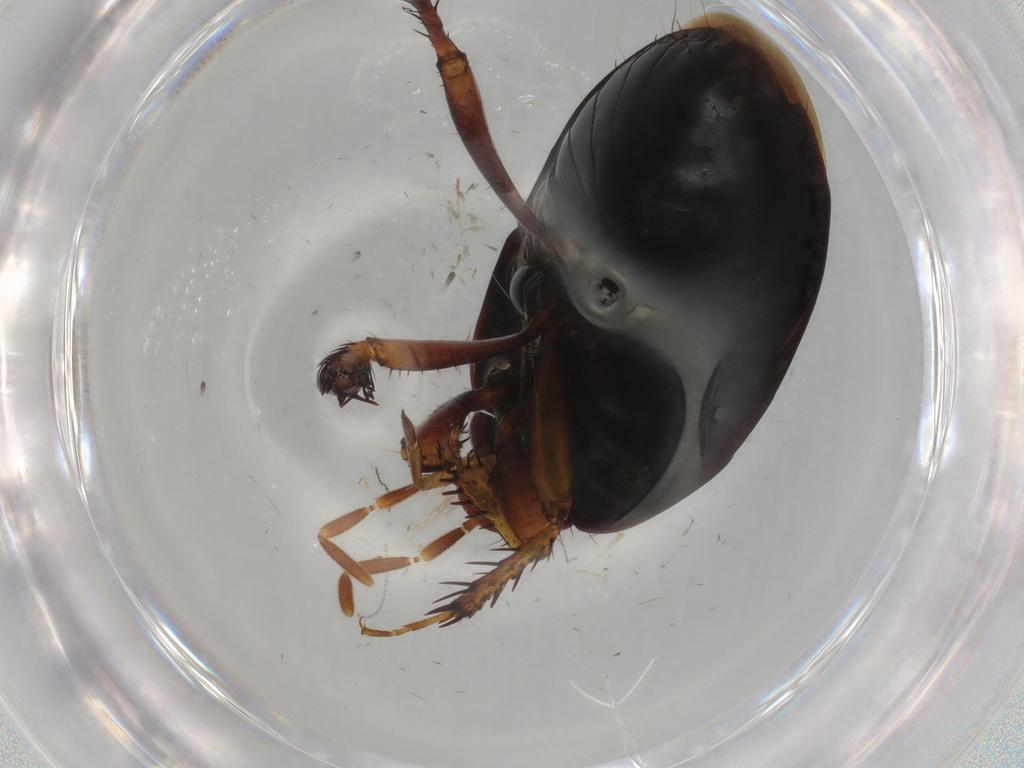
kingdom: Animalia
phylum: Arthropoda
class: Insecta
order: Hemiptera
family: Cydnidae
